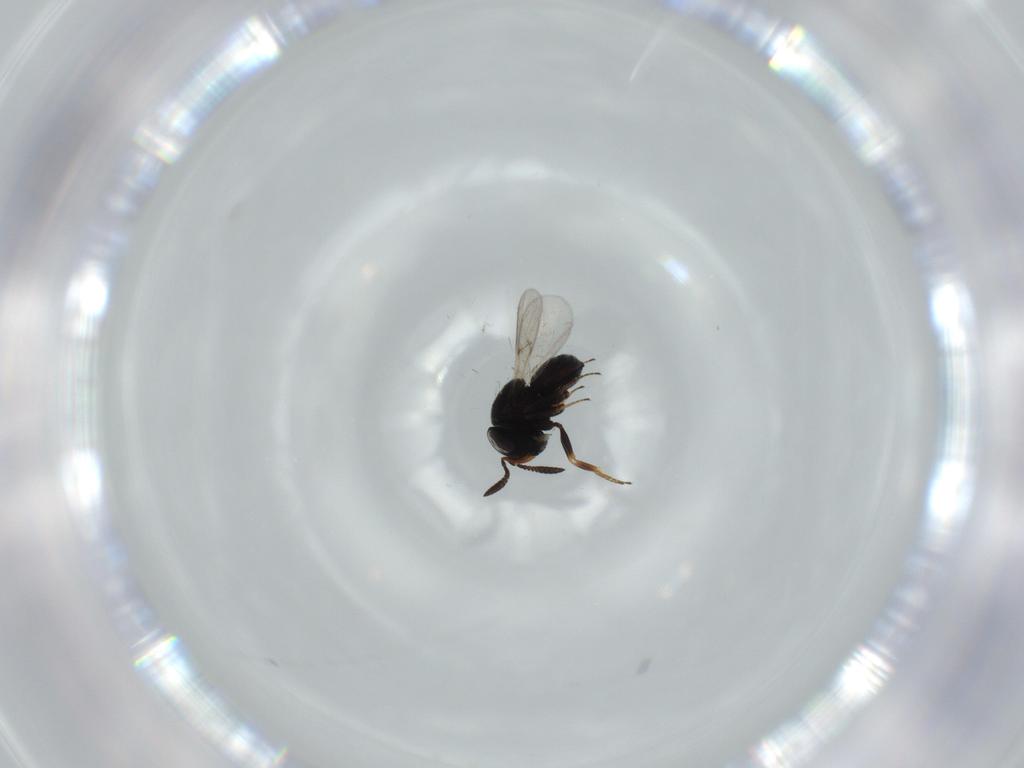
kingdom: Animalia
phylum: Arthropoda
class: Insecta
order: Hymenoptera
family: Scelionidae
